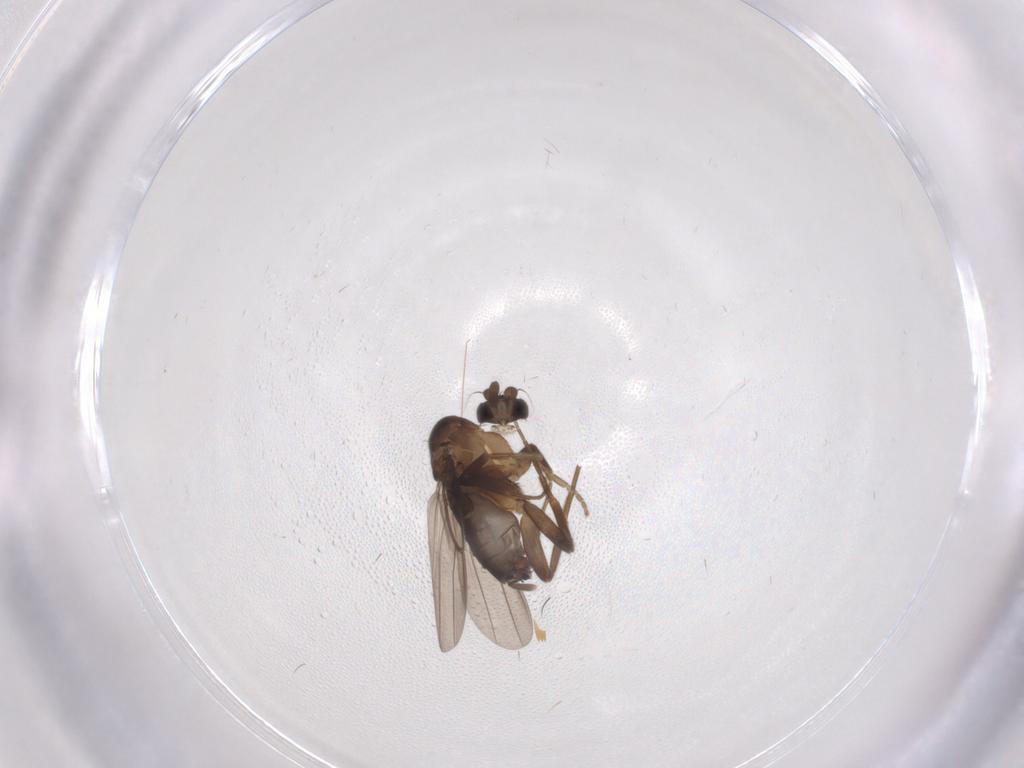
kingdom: Animalia
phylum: Arthropoda
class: Insecta
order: Diptera
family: Phoridae
